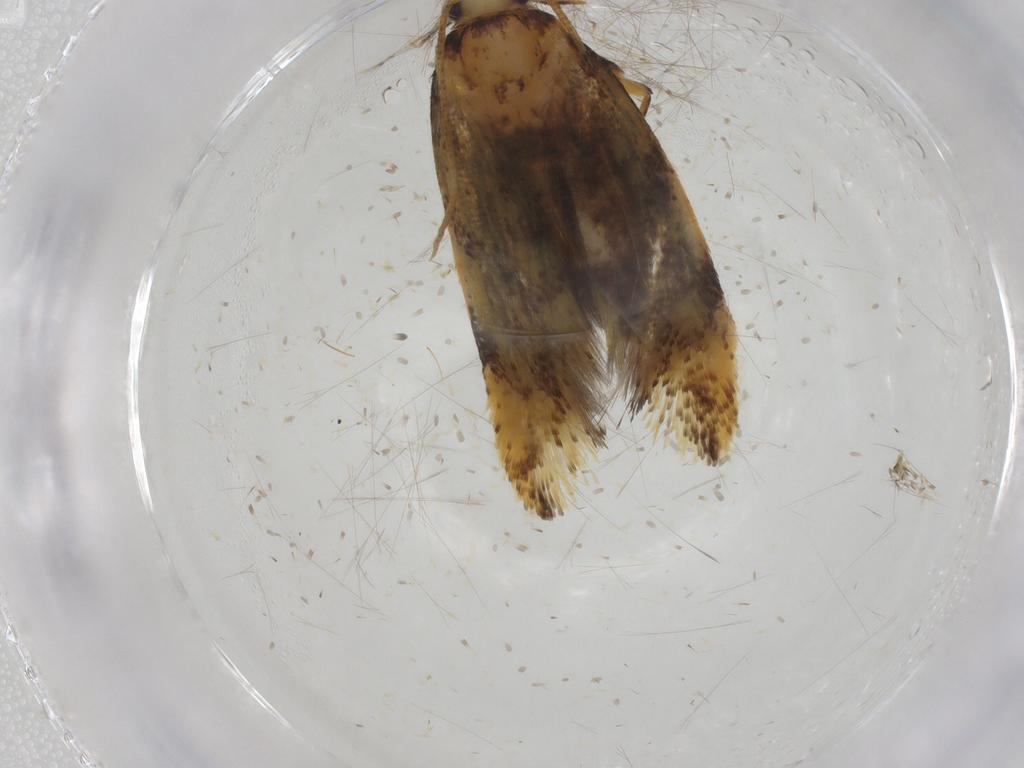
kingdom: Animalia
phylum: Arthropoda
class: Insecta
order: Lepidoptera
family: Tineidae
